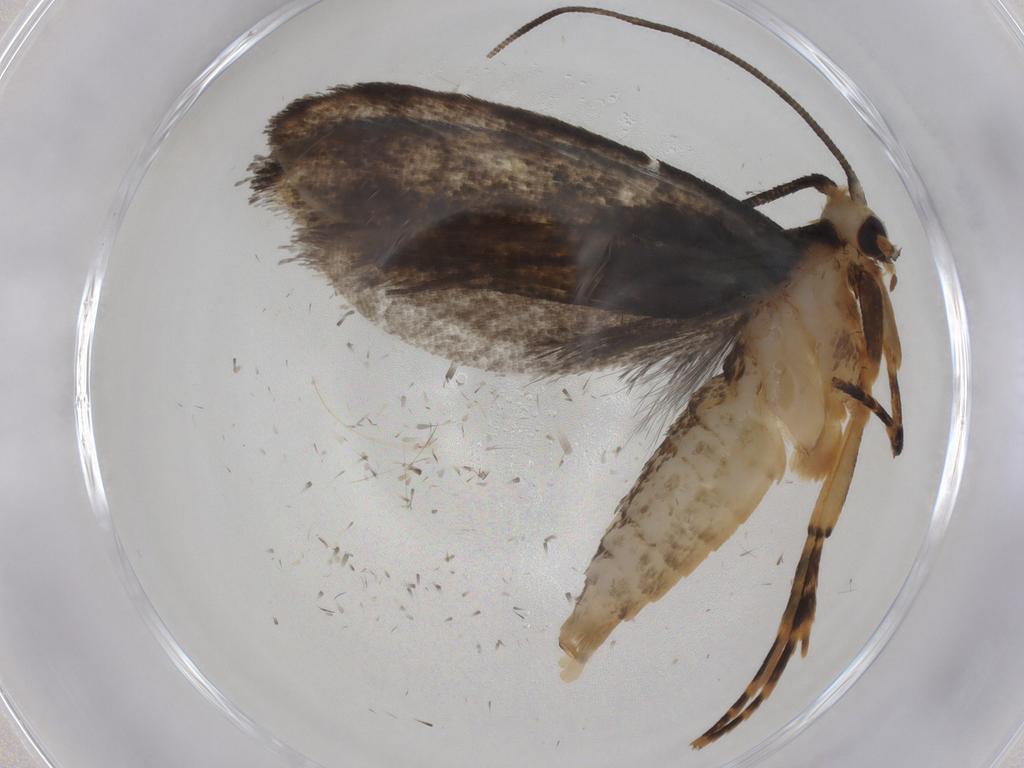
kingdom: Animalia
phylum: Arthropoda
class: Insecta
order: Lepidoptera
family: Tineidae
